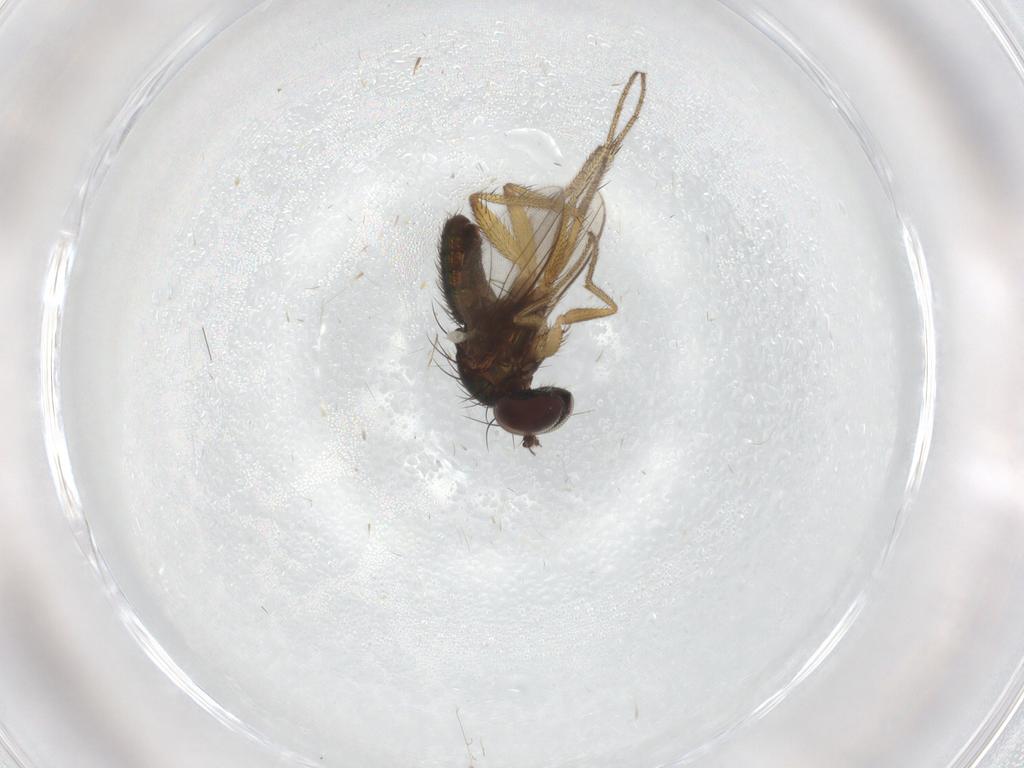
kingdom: Animalia
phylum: Arthropoda
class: Insecta
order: Diptera
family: Dolichopodidae
